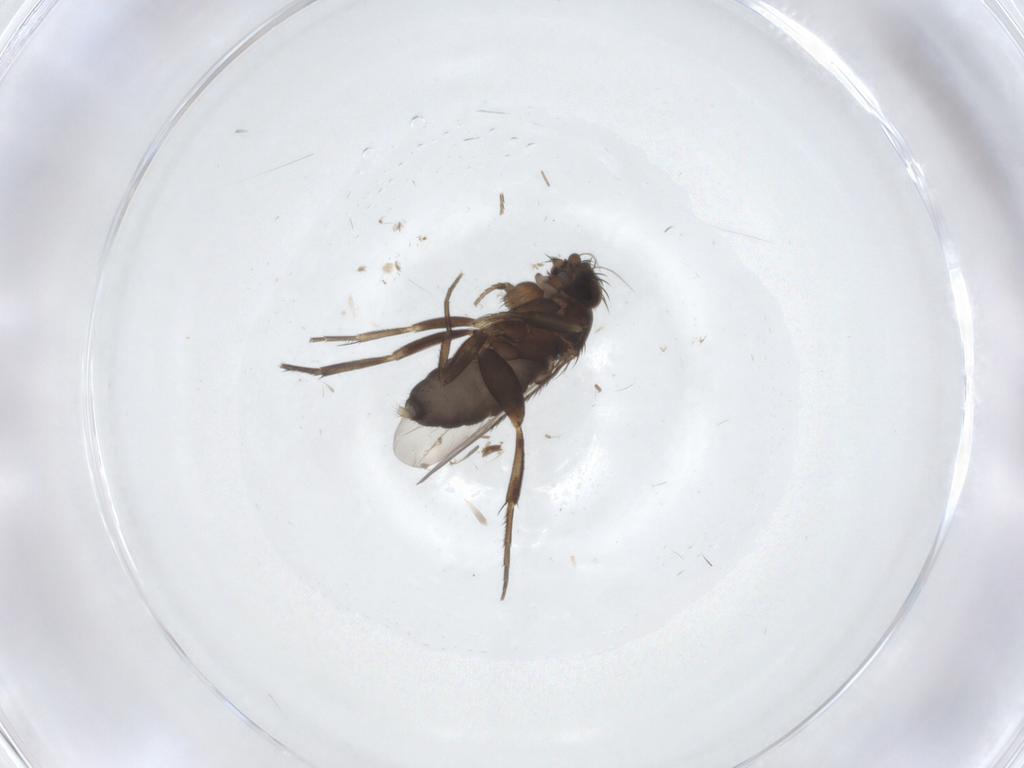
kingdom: Animalia
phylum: Arthropoda
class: Insecta
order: Diptera
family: Phoridae
